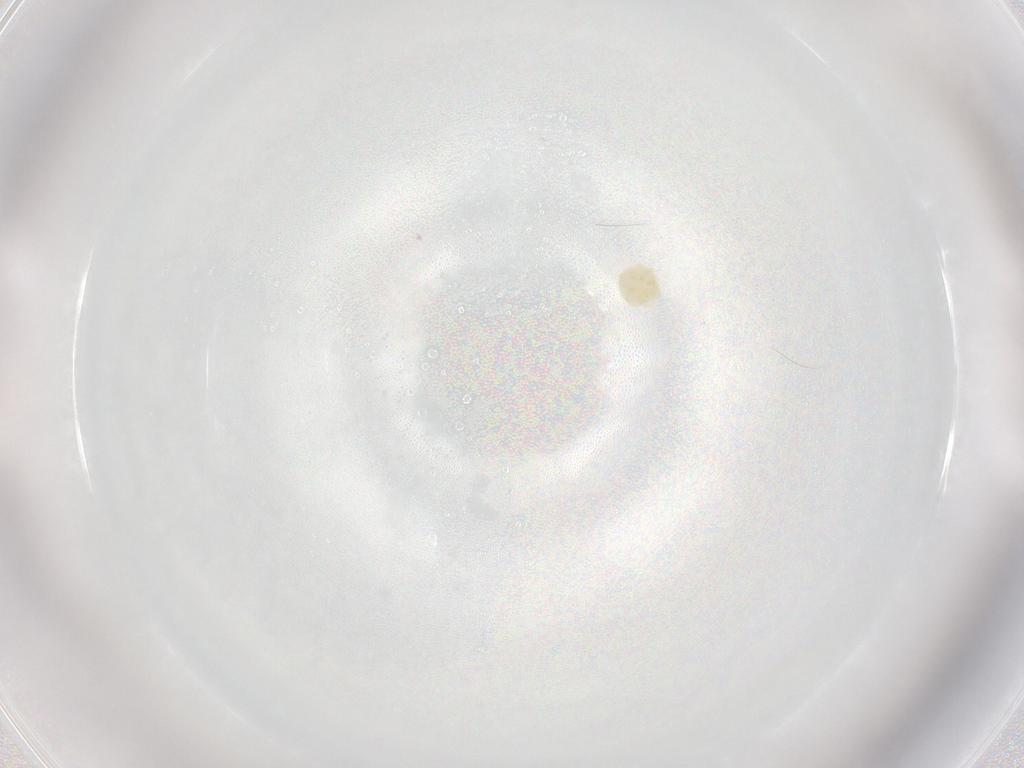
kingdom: Animalia
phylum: Arthropoda
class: Arachnida
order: Trombidiformes
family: Sperchontidae
